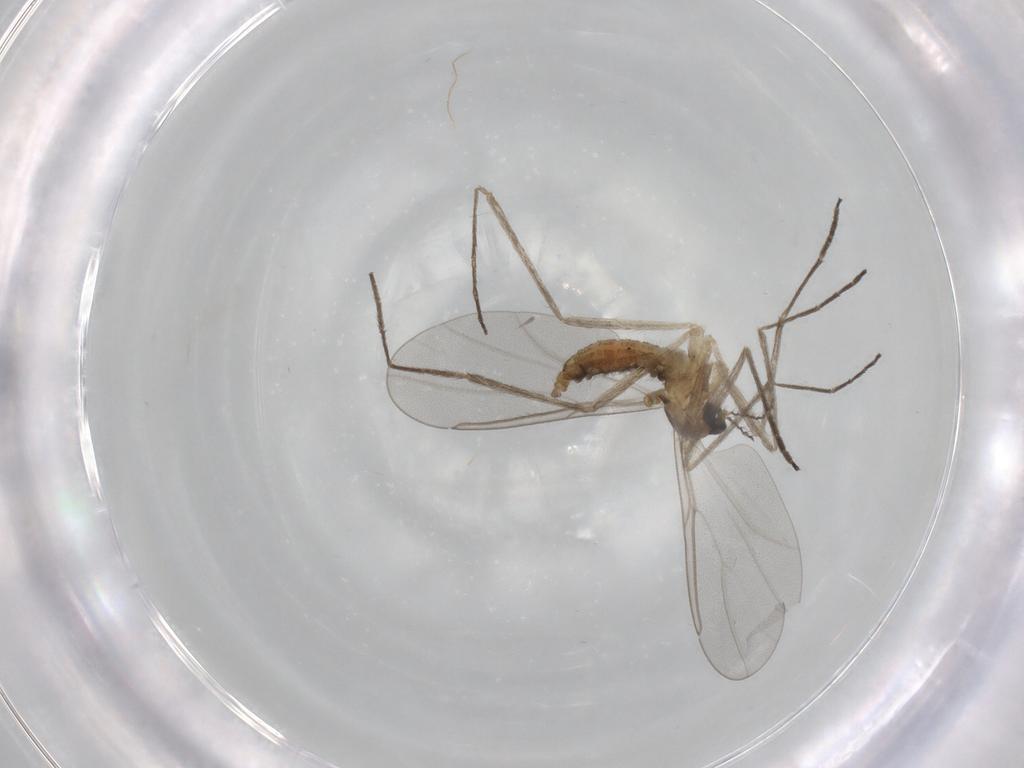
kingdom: Animalia
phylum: Arthropoda
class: Insecta
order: Diptera
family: Cecidomyiidae
